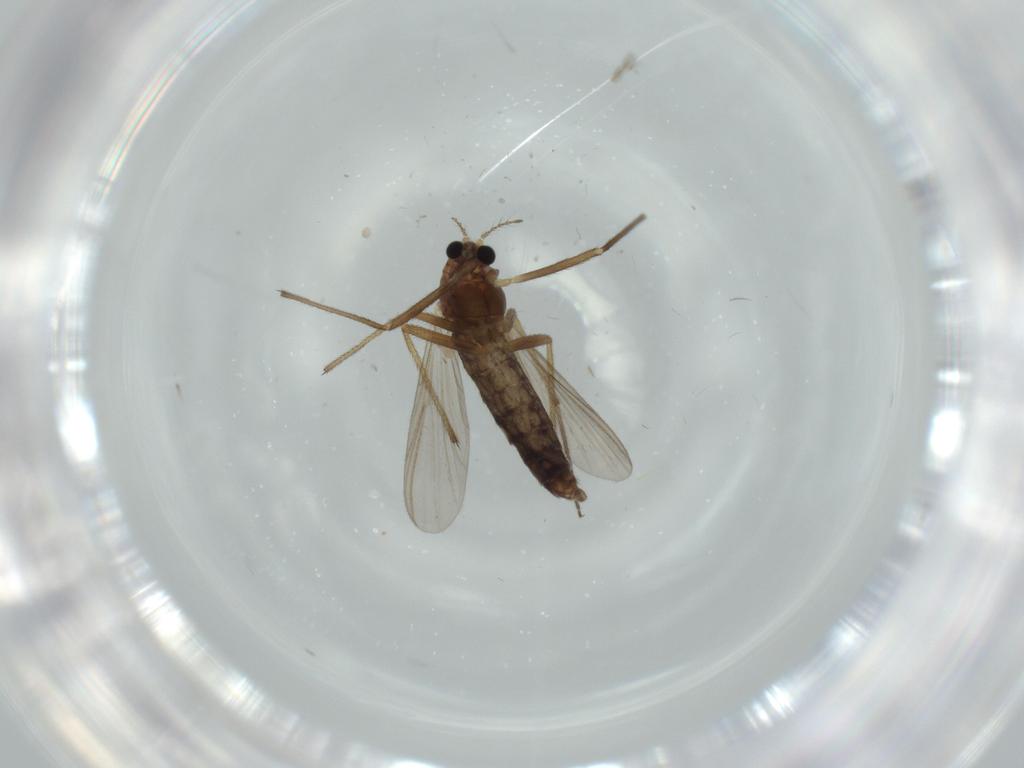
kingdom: Animalia
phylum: Arthropoda
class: Insecta
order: Diptera
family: Chironomidae
